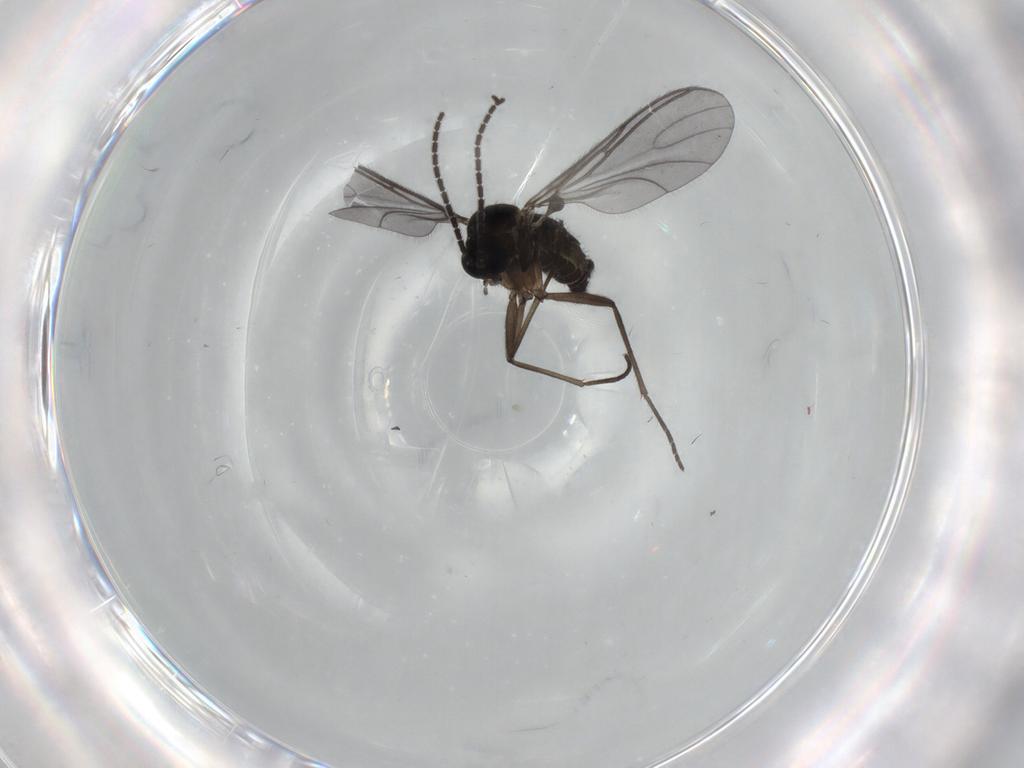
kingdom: Animalia
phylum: Arthropoda
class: Insecta
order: Diptera
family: Sciaridae
